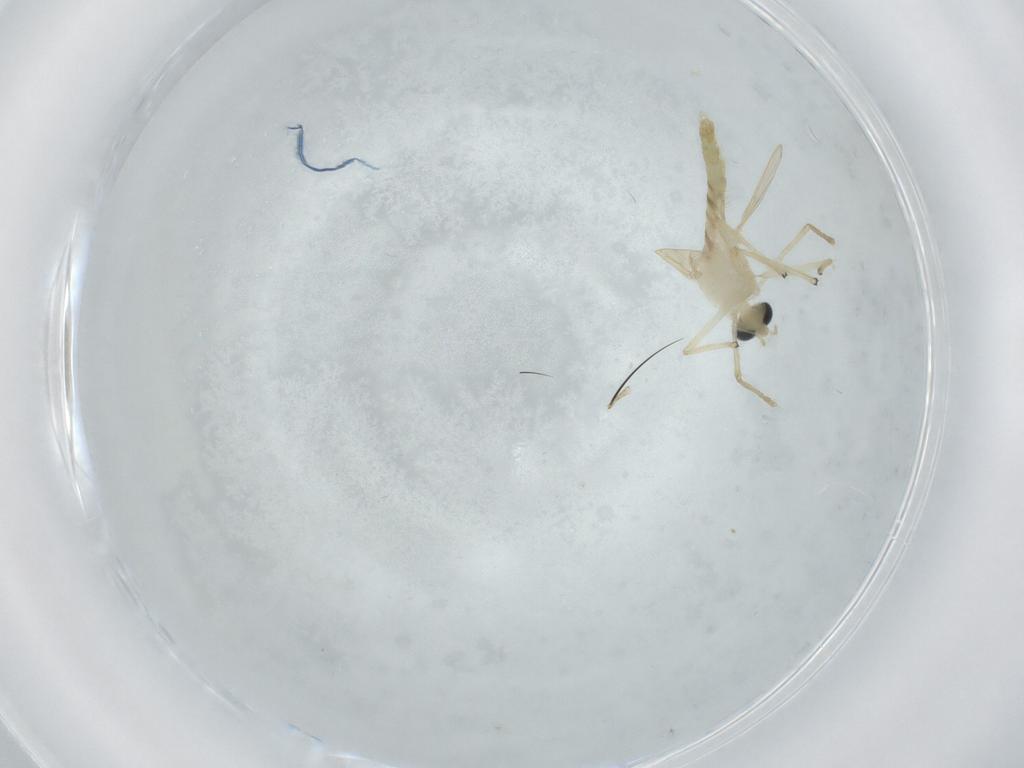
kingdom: Animalia
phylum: Arthropoda
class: Insecta
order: Diptera
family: Chironomidae
